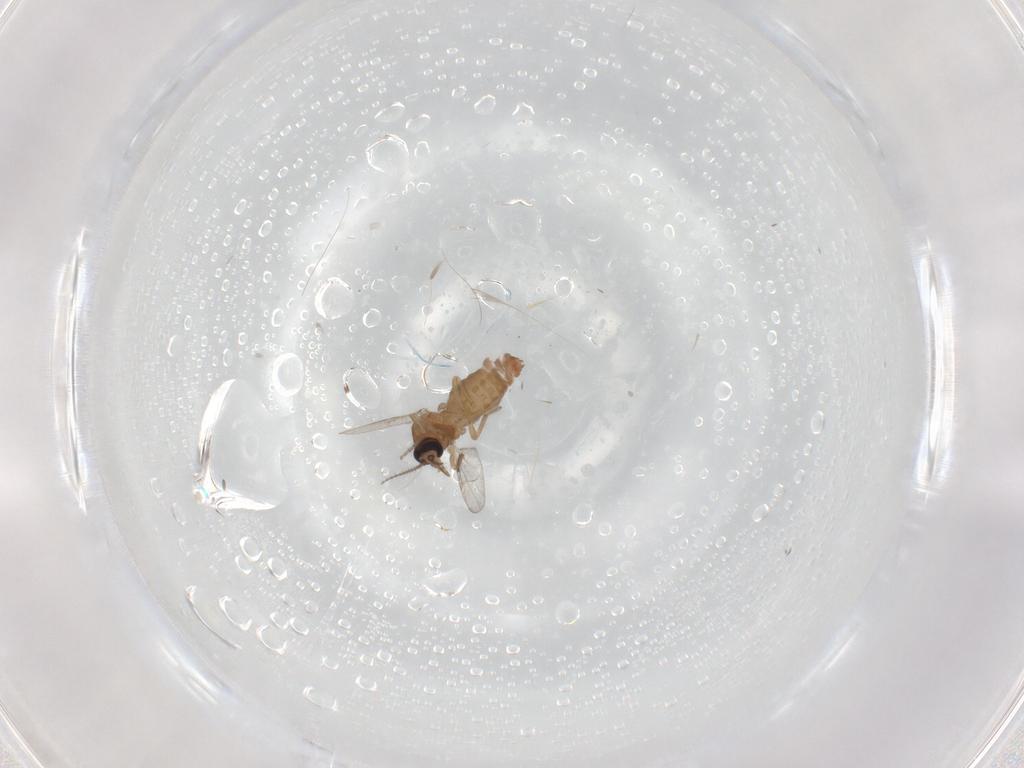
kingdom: Animalia
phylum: Arthropoda
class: Insecta
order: Diptera
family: Ceratopogonidae
